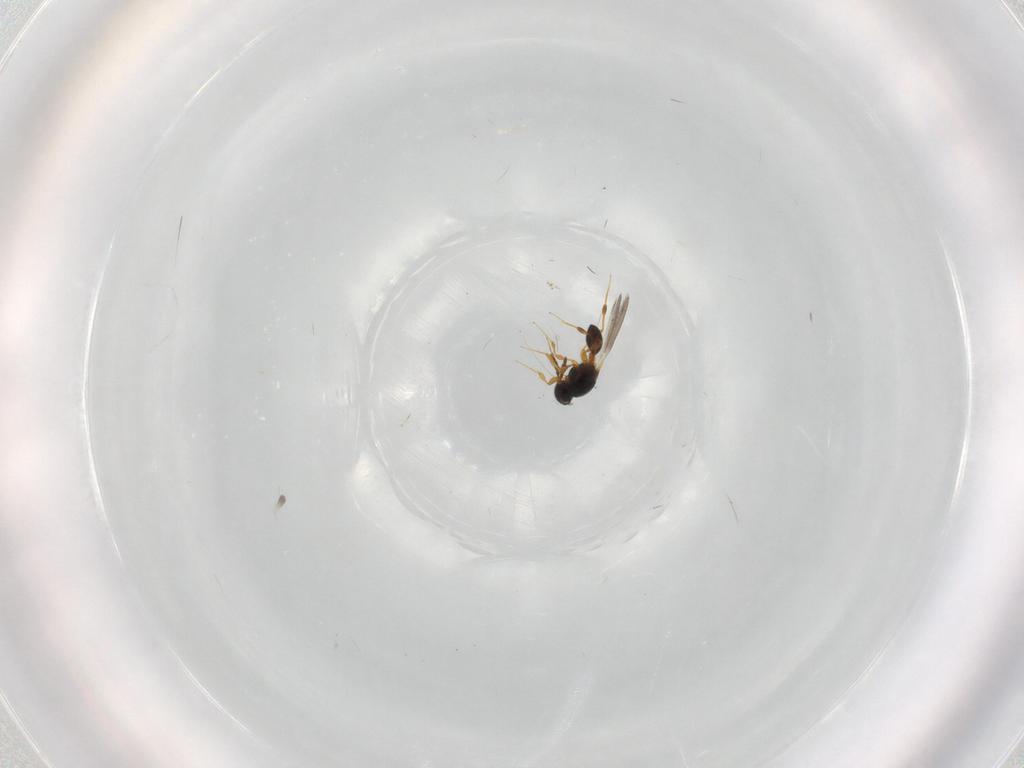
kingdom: Animalia
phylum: Arthropoda
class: Insecta
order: Hymenoptera
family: Platygastridae
